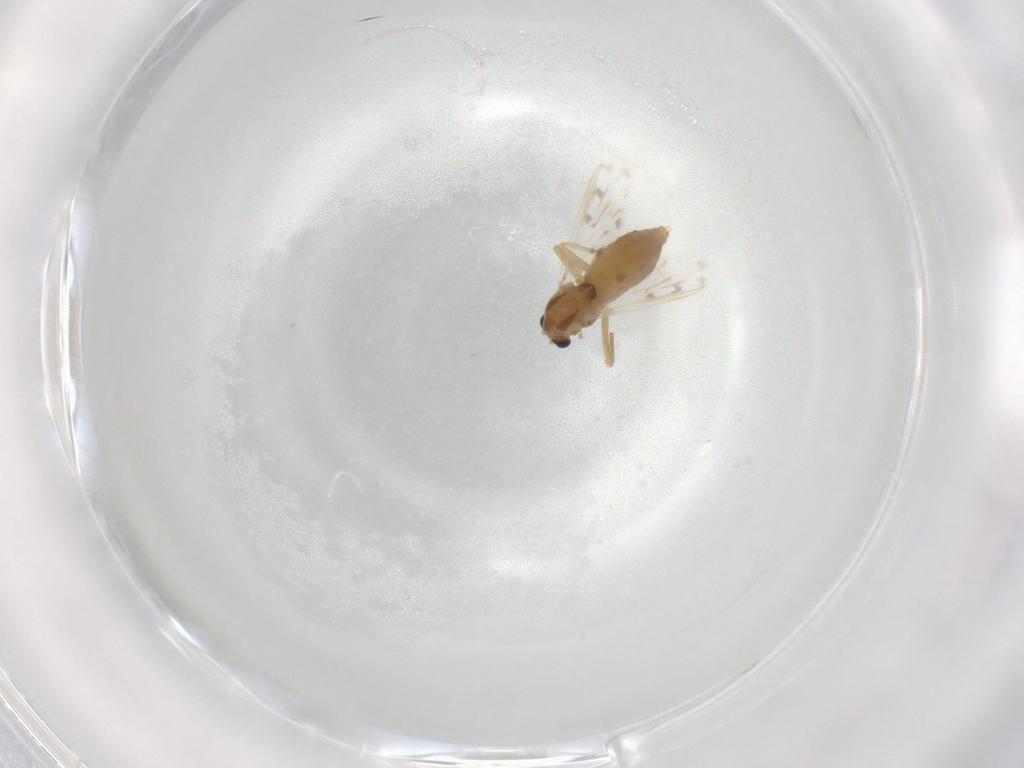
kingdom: Animalia
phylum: Arthropoda
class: Insecta
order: Diptera
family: Chironomidae
